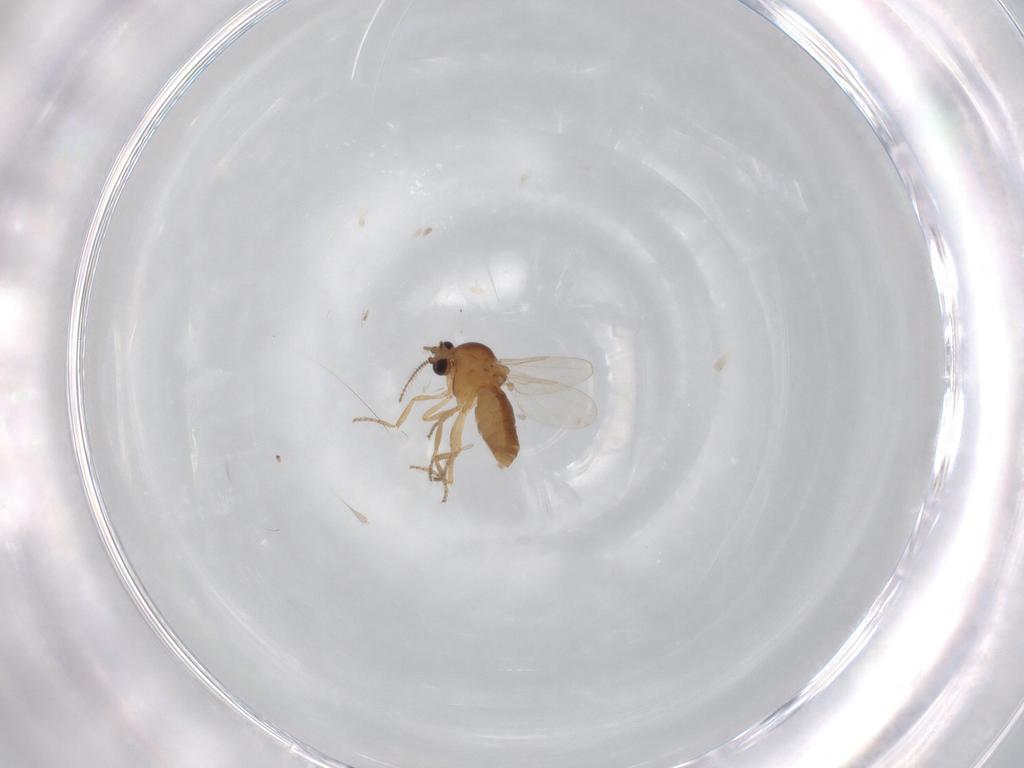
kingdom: Animalia
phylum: Arthropoda
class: Insecta
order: Diptera
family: Ceratopogonidae
